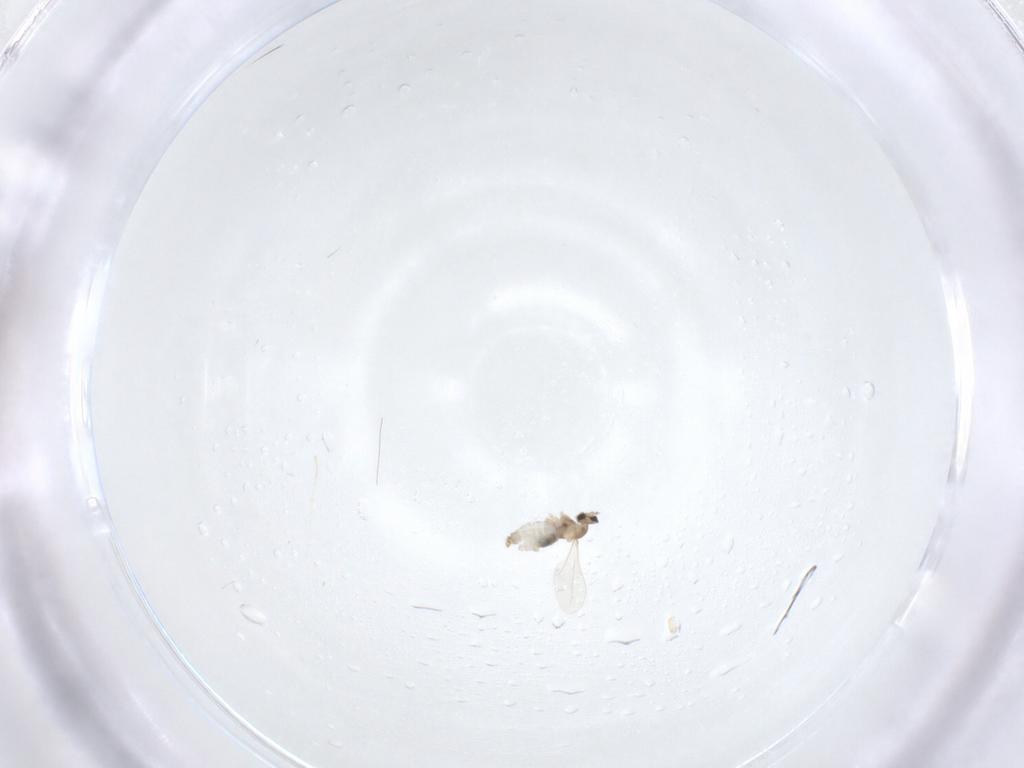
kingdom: Animalia
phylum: Arthropoda
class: Insecta
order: Diptera
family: Cecidomyiidae
